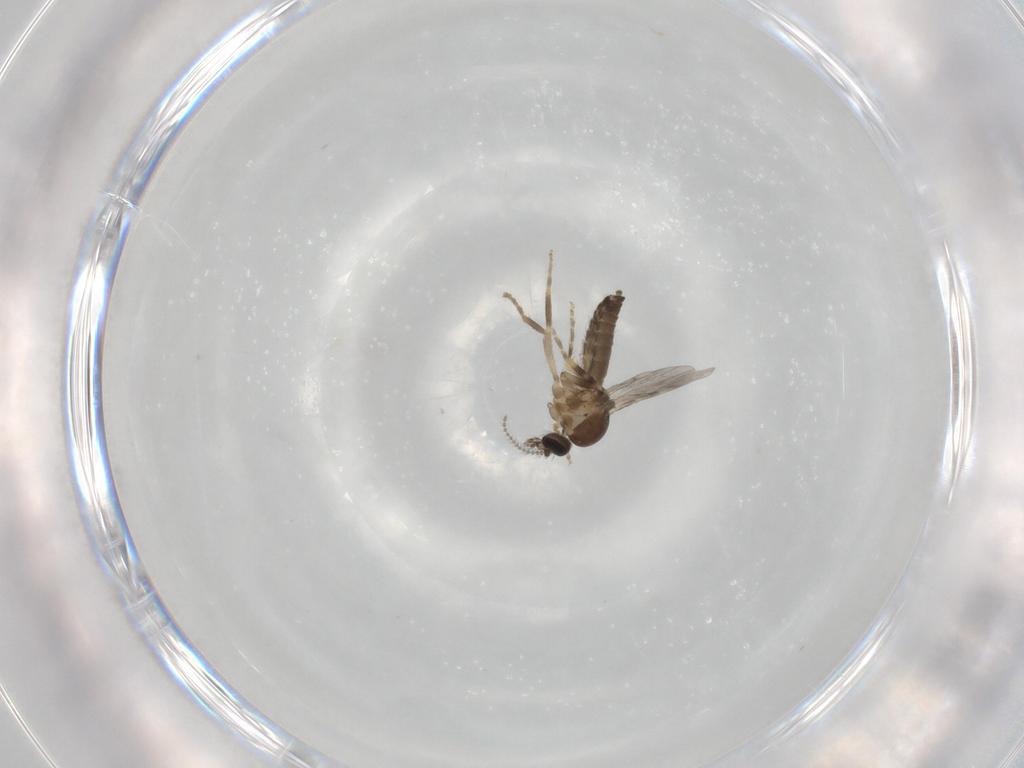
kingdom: Animalia
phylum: Arthropoda
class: Insecta
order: Diptera
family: Ceratopogonidae
